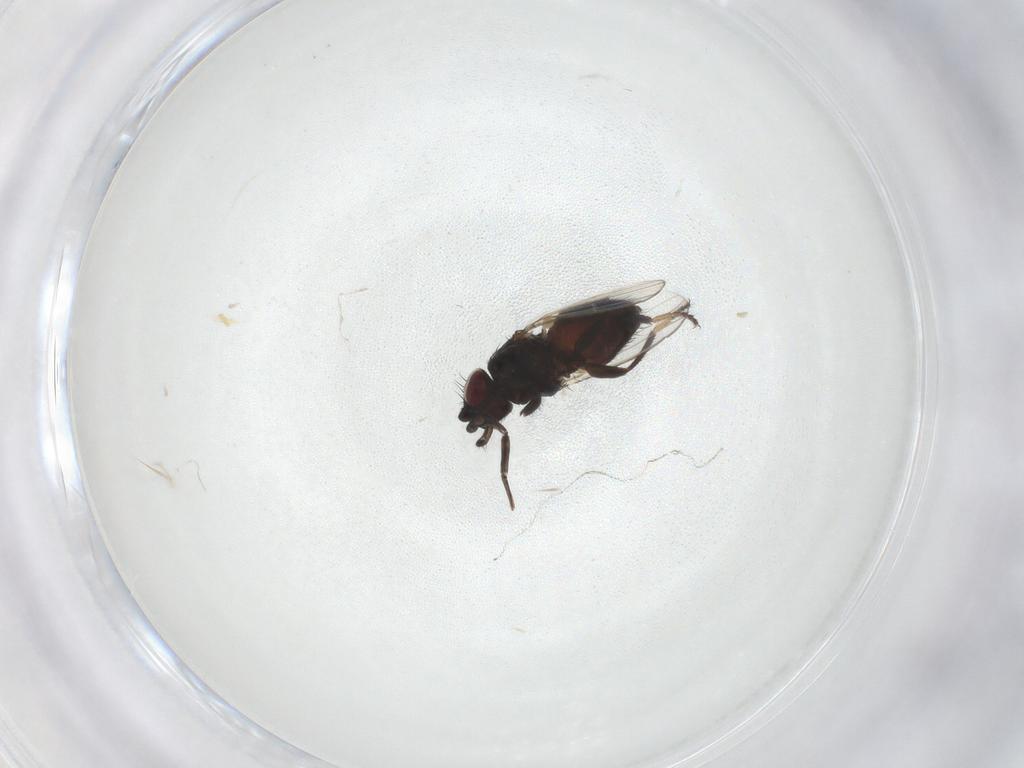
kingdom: Animalia
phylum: Arthropoda
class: Insecta
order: Diptera
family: Milichiidae
